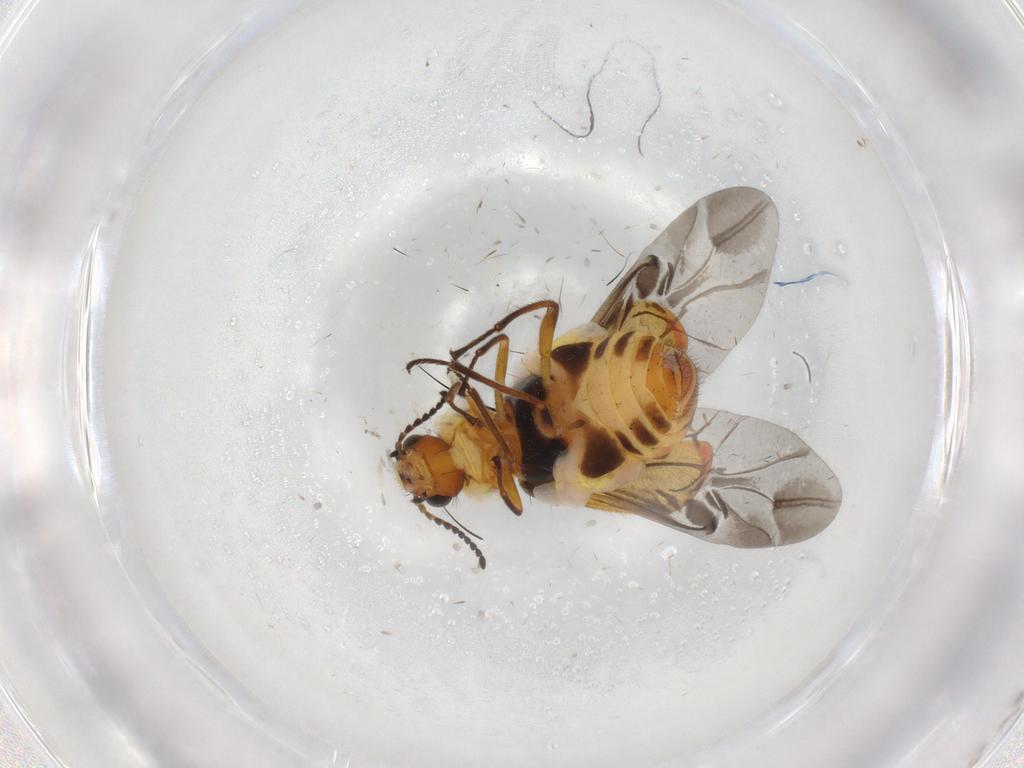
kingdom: Animalia
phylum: Arthropoda
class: Insecta
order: Coleoptera
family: Melyridae
